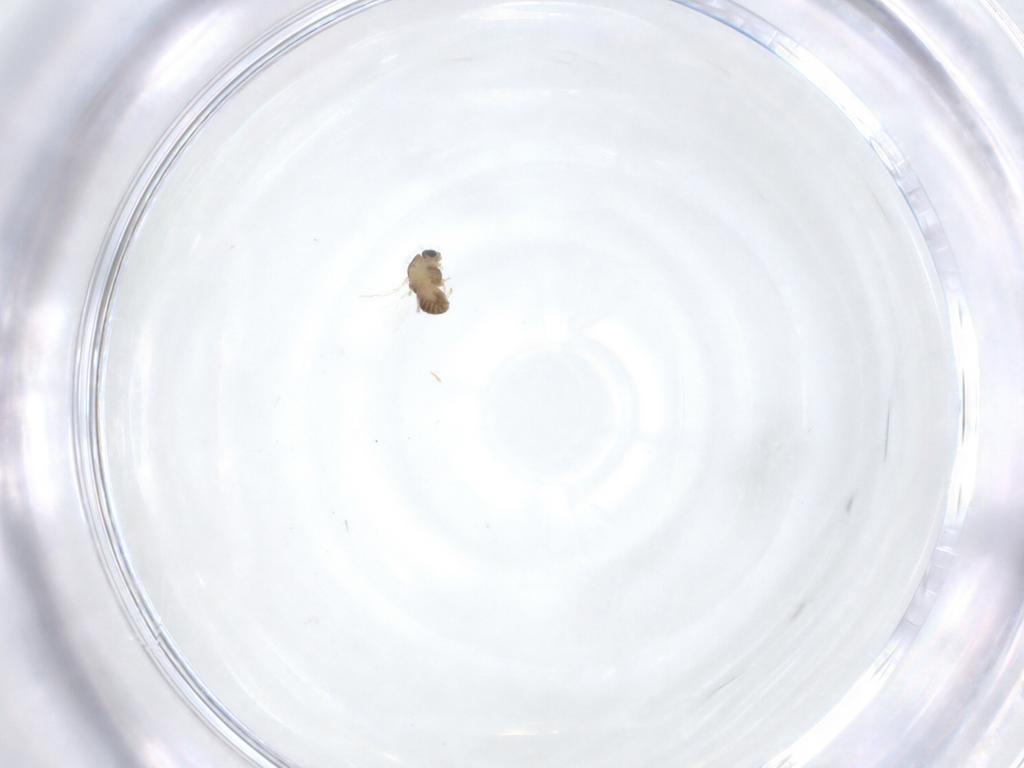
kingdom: Animalia
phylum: Arthropoda
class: Insecta
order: Diptera
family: Chironomidae
